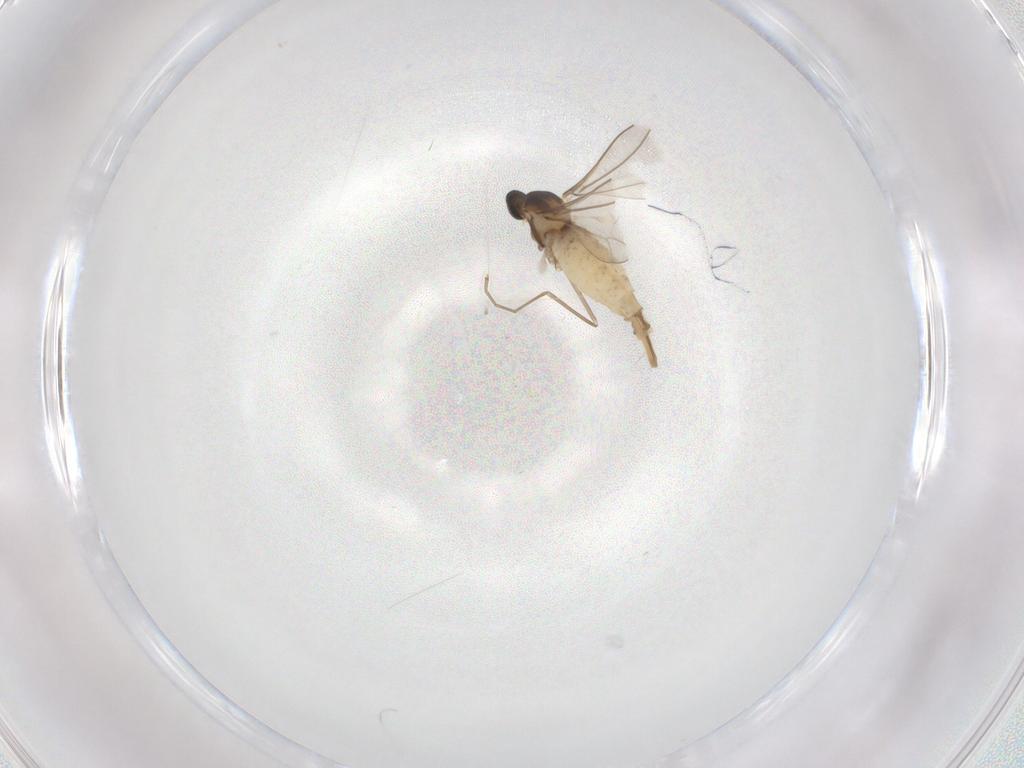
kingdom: Animalia
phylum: Arthropoda
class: Insecta
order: Diptera
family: Cecidomyiidae
